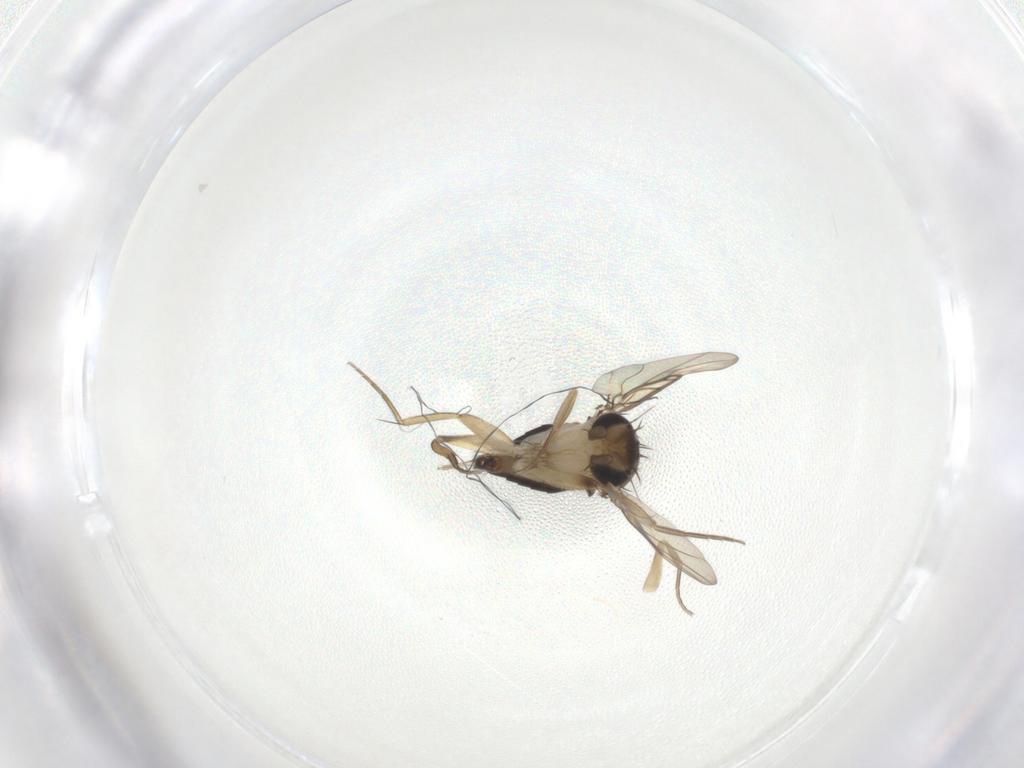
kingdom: Animalia
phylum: Arthropoda
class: Insecta
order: Diptera
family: Phoridae
